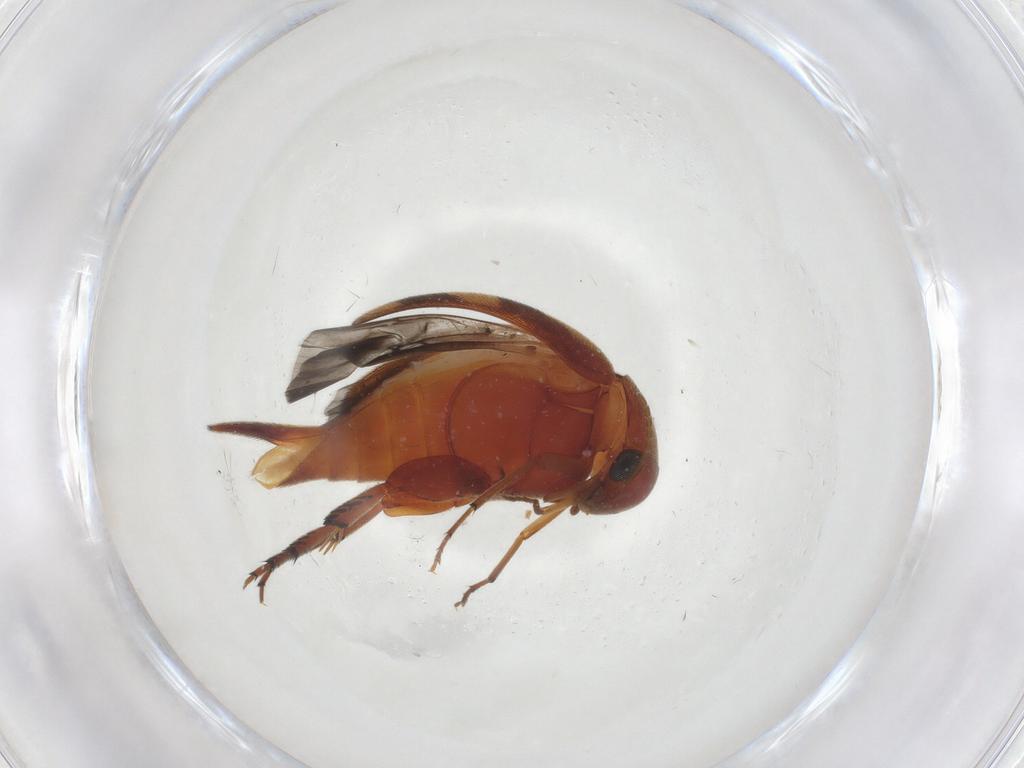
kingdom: Animalia
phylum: Arthropoda
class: Insecta
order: Coleoptera
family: Mordellidae
